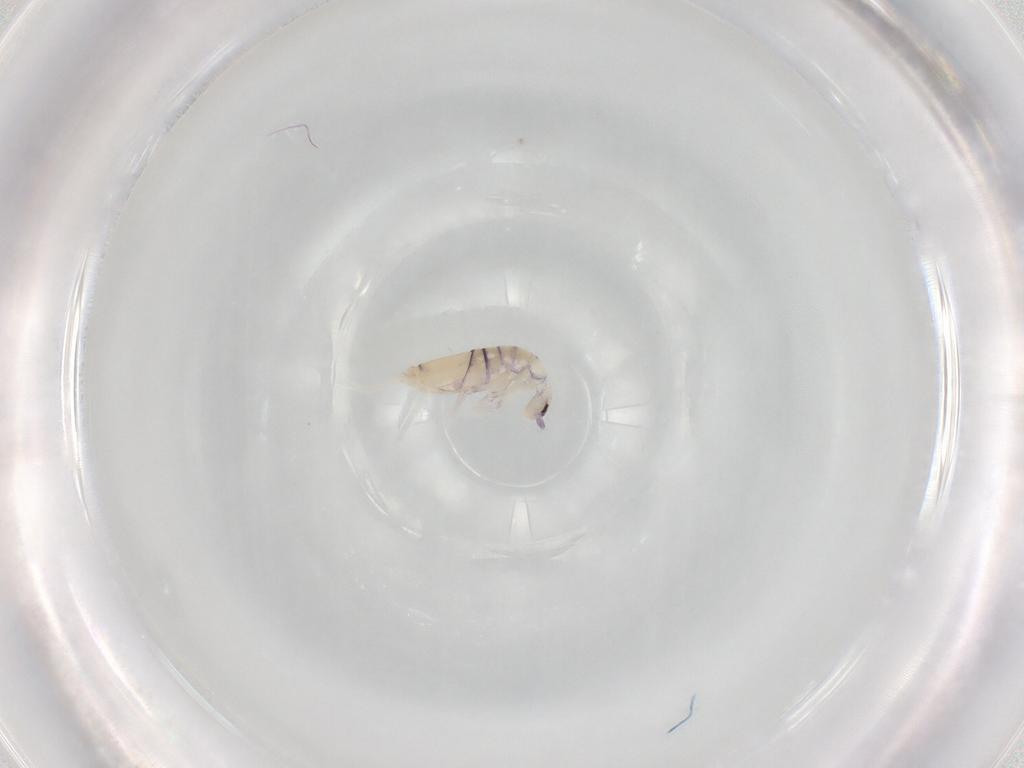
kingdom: Animalia
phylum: Arthropoda
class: Collembola
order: Entomobryomorpha
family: Entomobryidae
